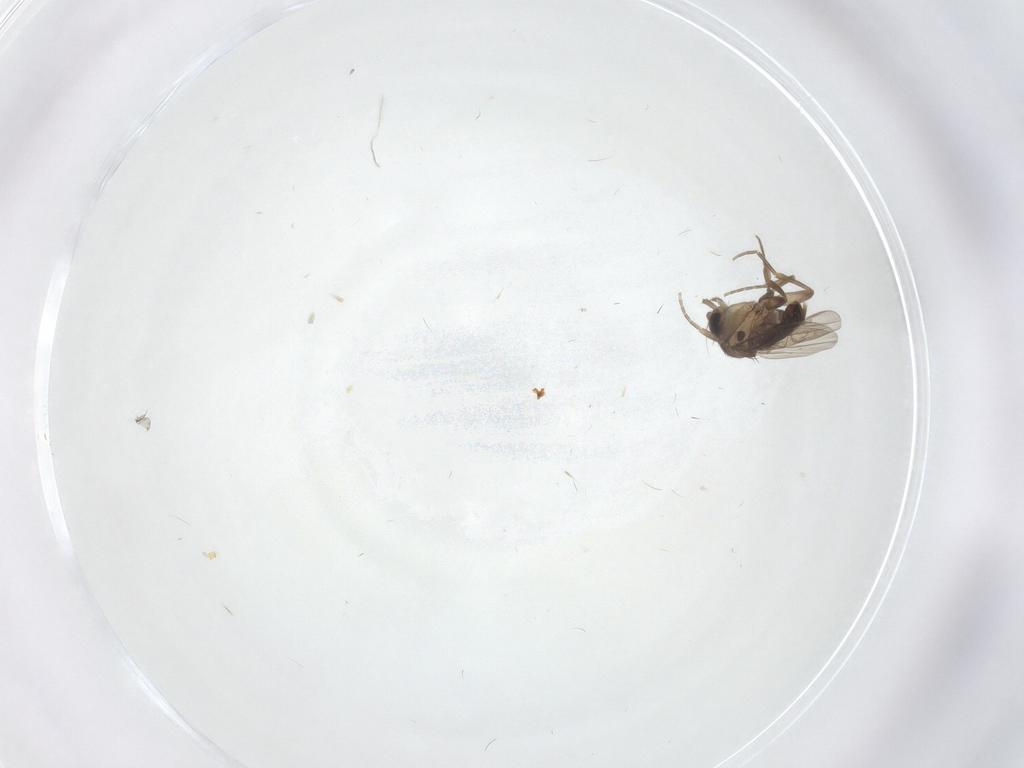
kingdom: Animalia
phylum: Arthropoda
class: Insecta
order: Diptera
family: Phoridae
